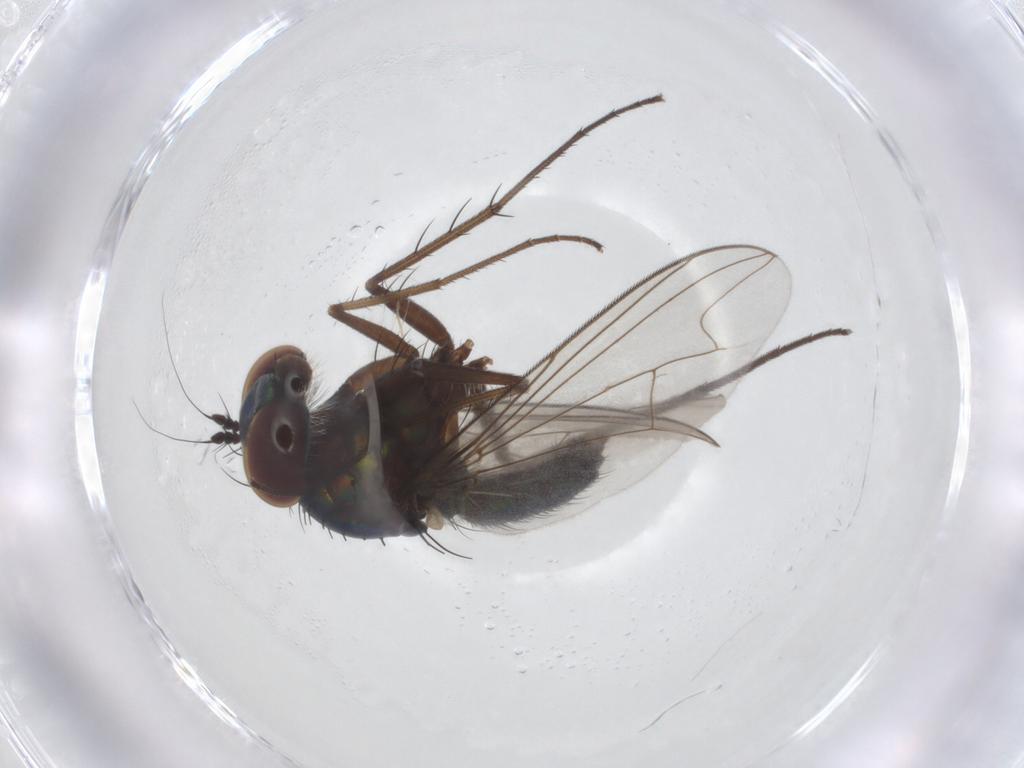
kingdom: Animalia
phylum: Arthropoda
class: Insecta
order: Diptera
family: Dolichopodidae
